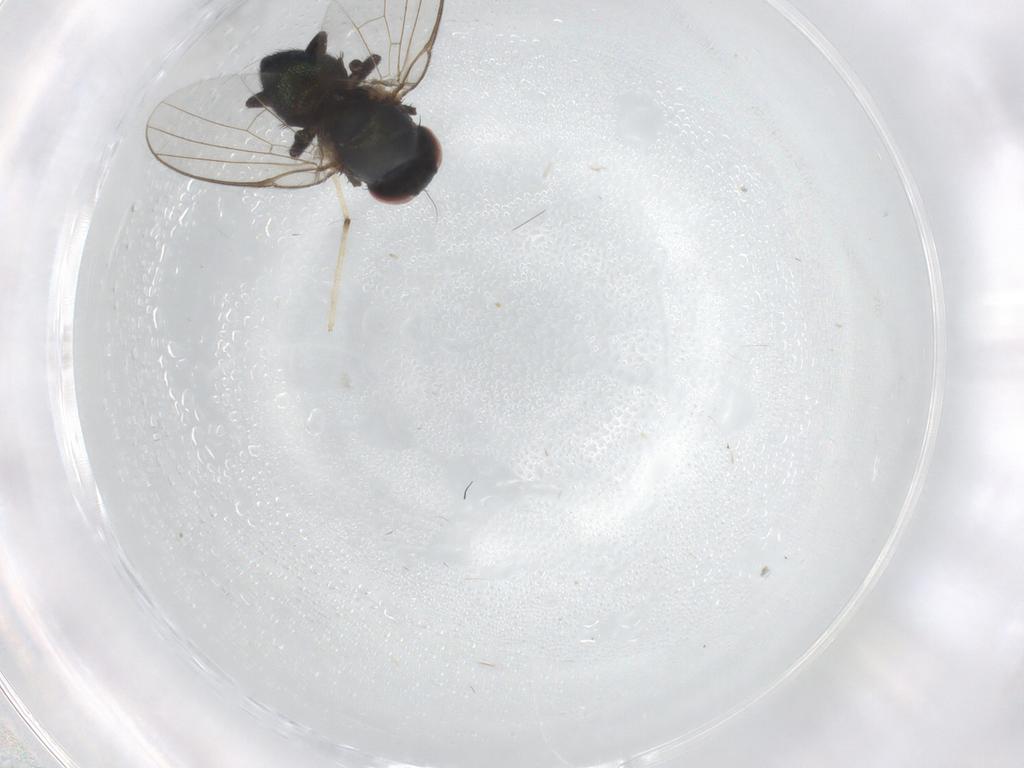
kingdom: Animalia
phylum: Arthropoda
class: Insecta
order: Diptera
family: Agromyzidae
